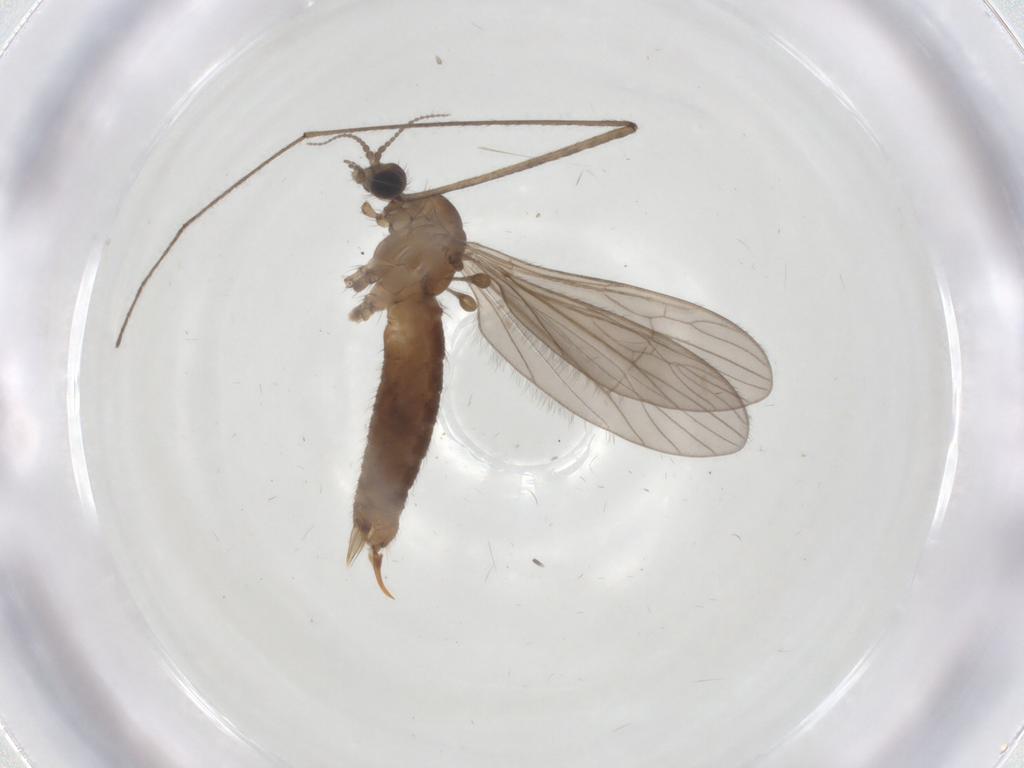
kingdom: Animalia
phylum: Arthropoda
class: Insecta
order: Diptera
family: Limoniidae
